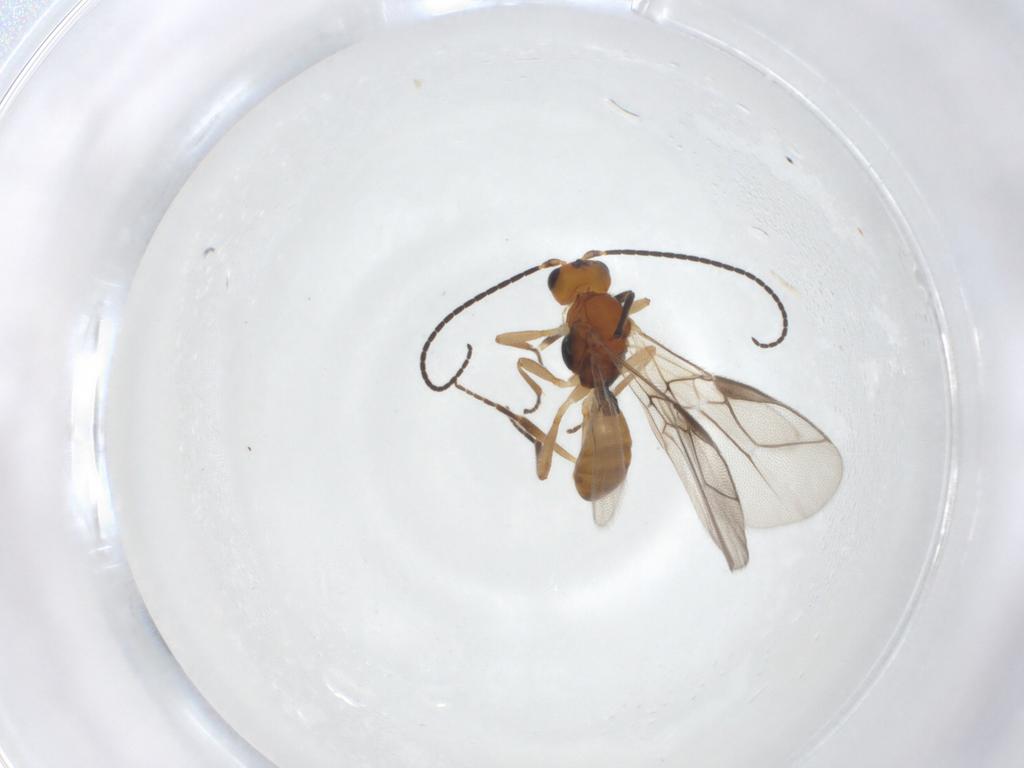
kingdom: Animalia
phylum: Arthropoda
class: Insecta
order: Hymenoptera
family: Braconidae
